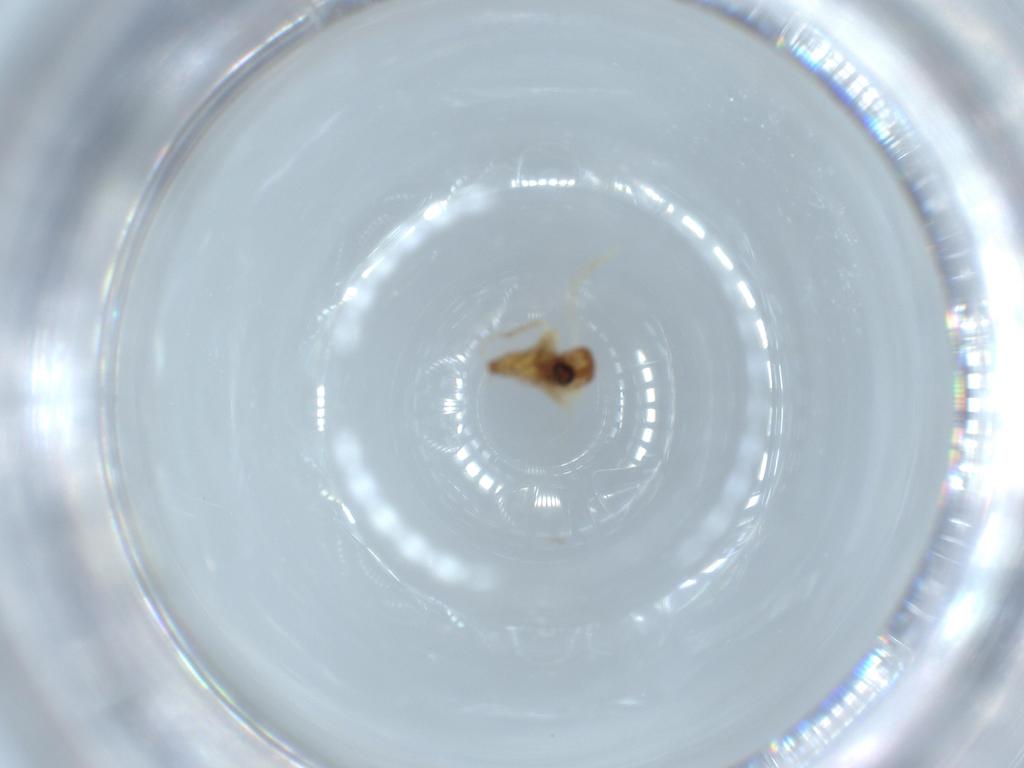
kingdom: Animalia
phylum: Arthropoda
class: Insecta
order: Diptera
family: Ceratopogonidae
